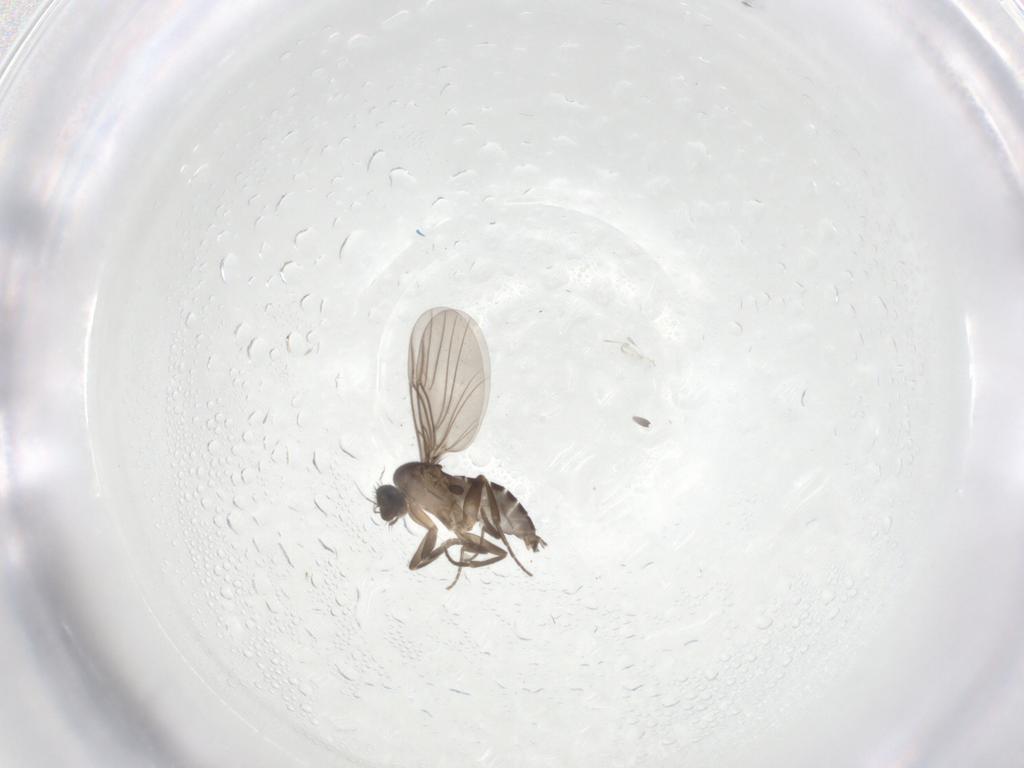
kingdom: Animalia
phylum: Arthropoda
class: Insecta
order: Diptera
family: Phoridae
